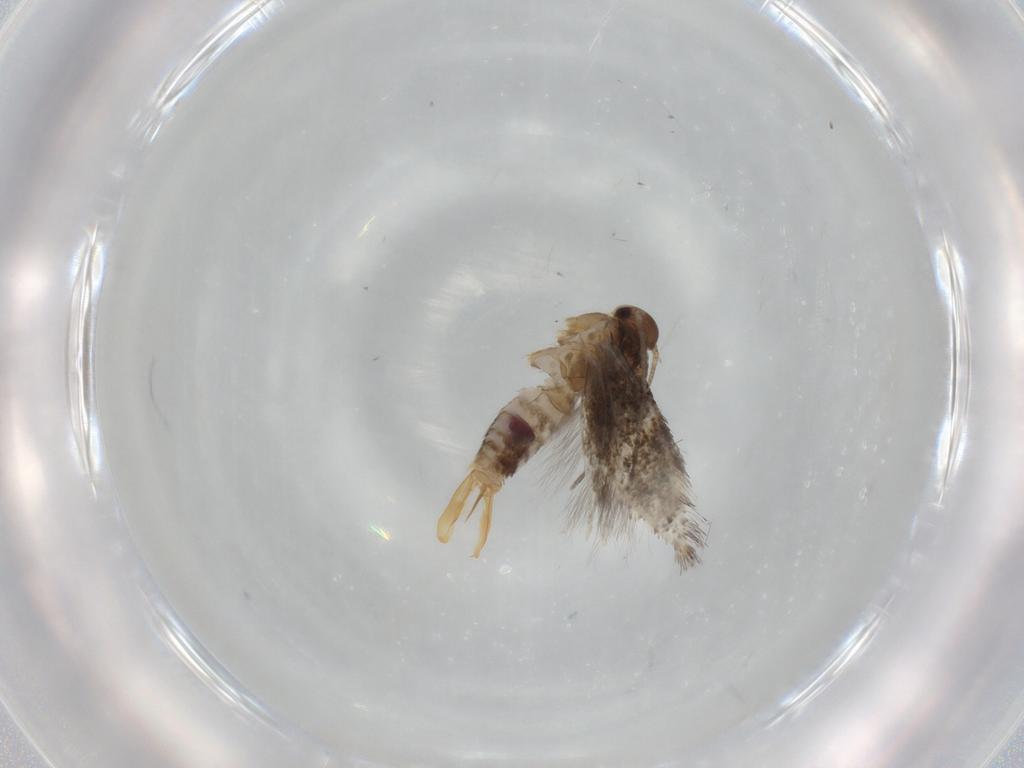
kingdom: Animalia
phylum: Arthropoda
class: Insecta
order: Lepidoptera
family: Elachistidae
